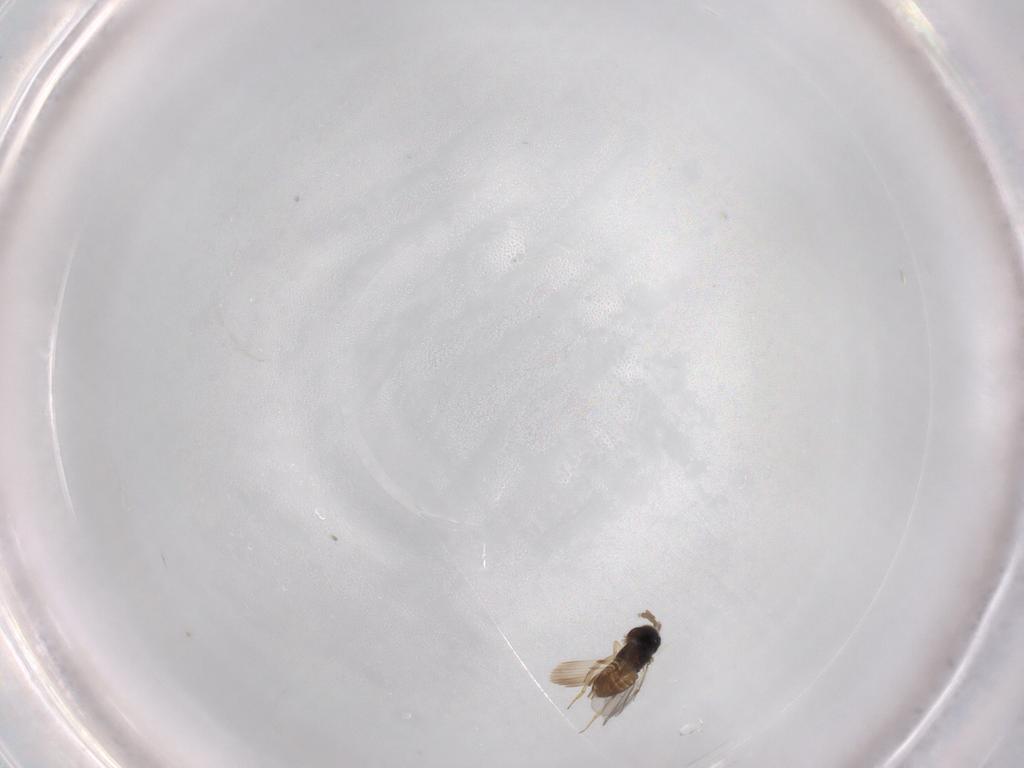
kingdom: Animalia
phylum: Arthropoda
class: Insecta
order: Hymenoptera
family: Encyrtidae
